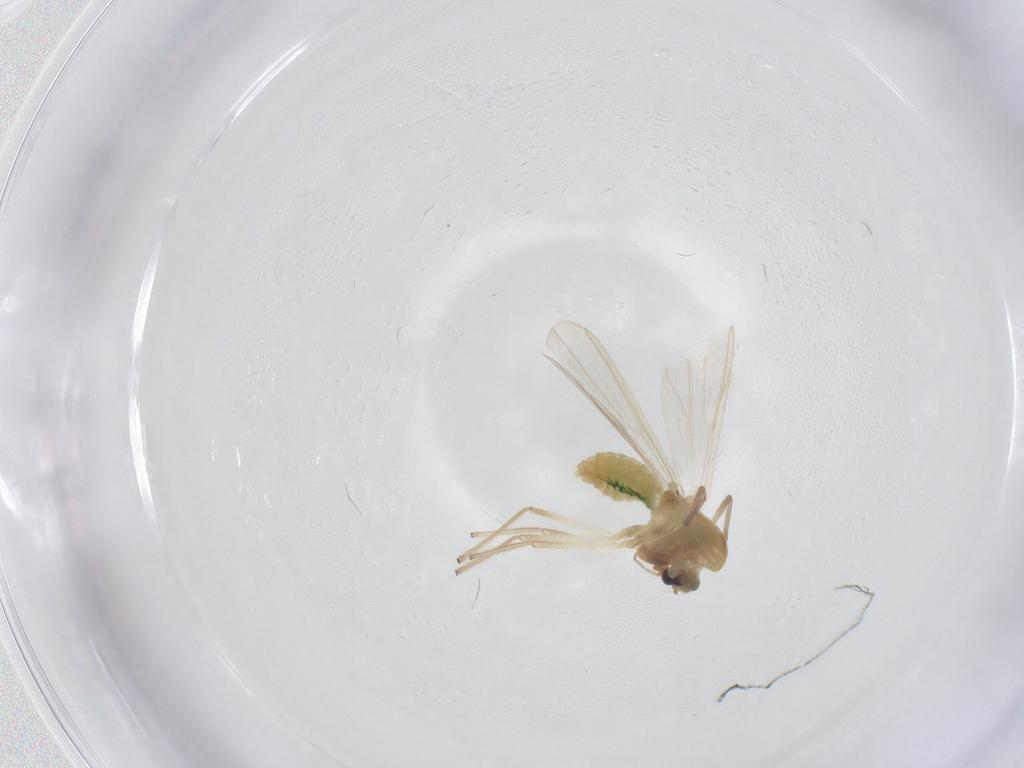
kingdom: Animalia
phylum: Arthropoda
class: Insecta
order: Diptera
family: Chironomidae
